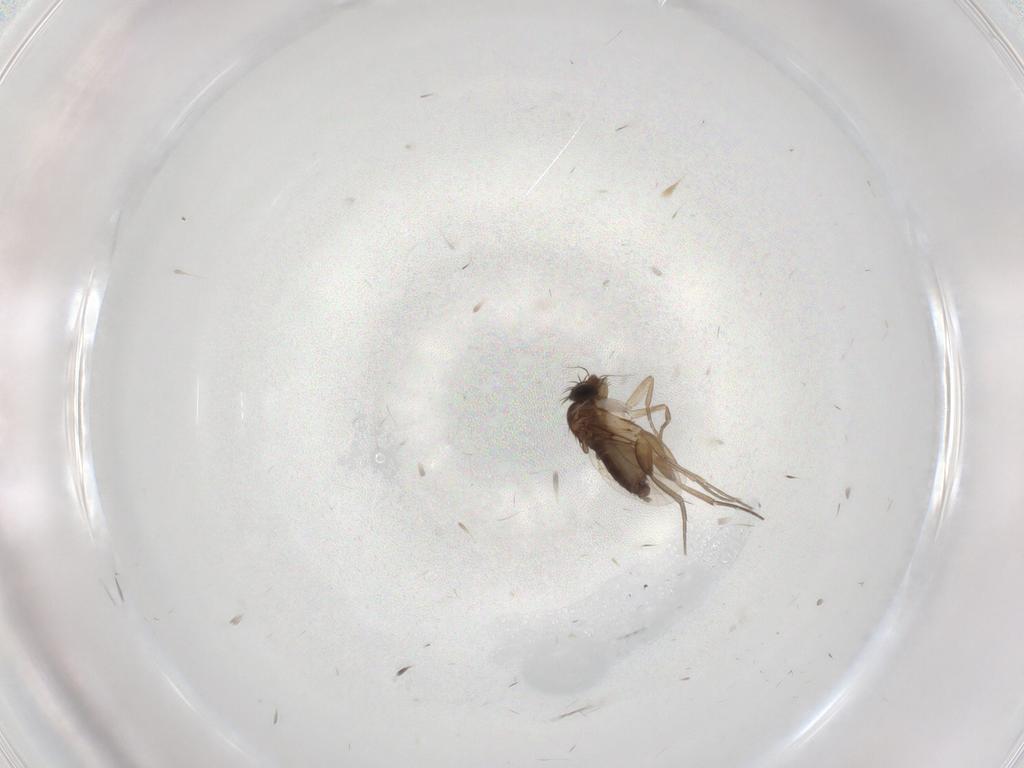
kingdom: Animalia
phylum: Arthropoda
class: Insecta
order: Diptera
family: Phoridae
